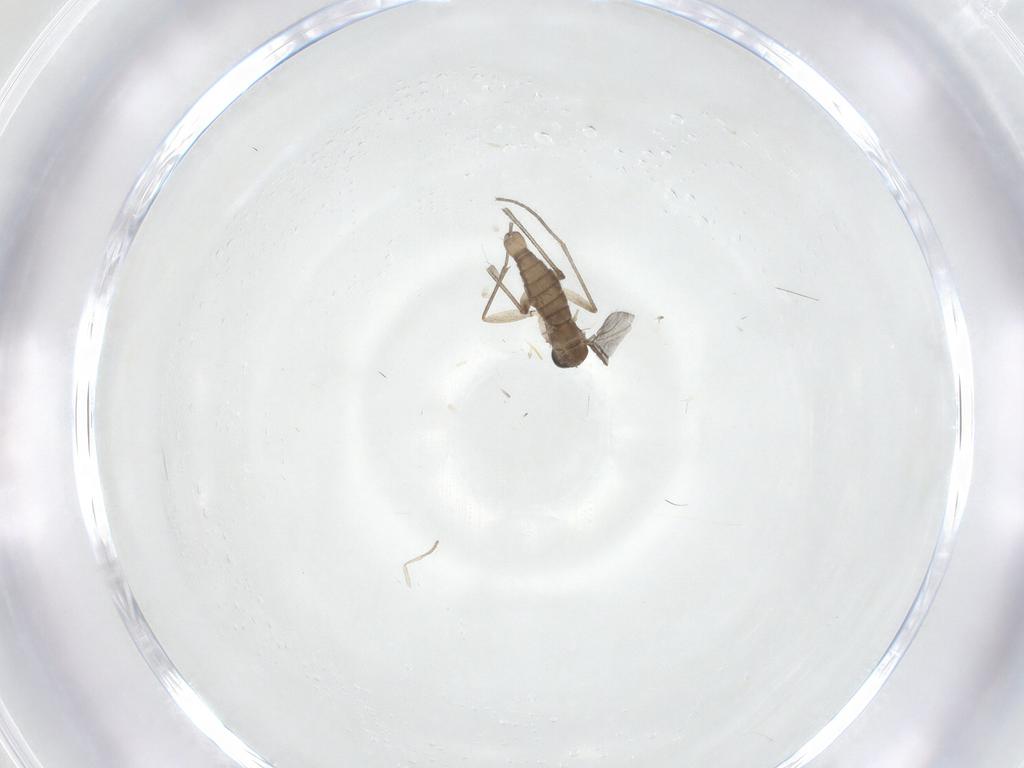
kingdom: Animalia
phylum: Arthropoda
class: Insecta
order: Diptera
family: Sciaridae
